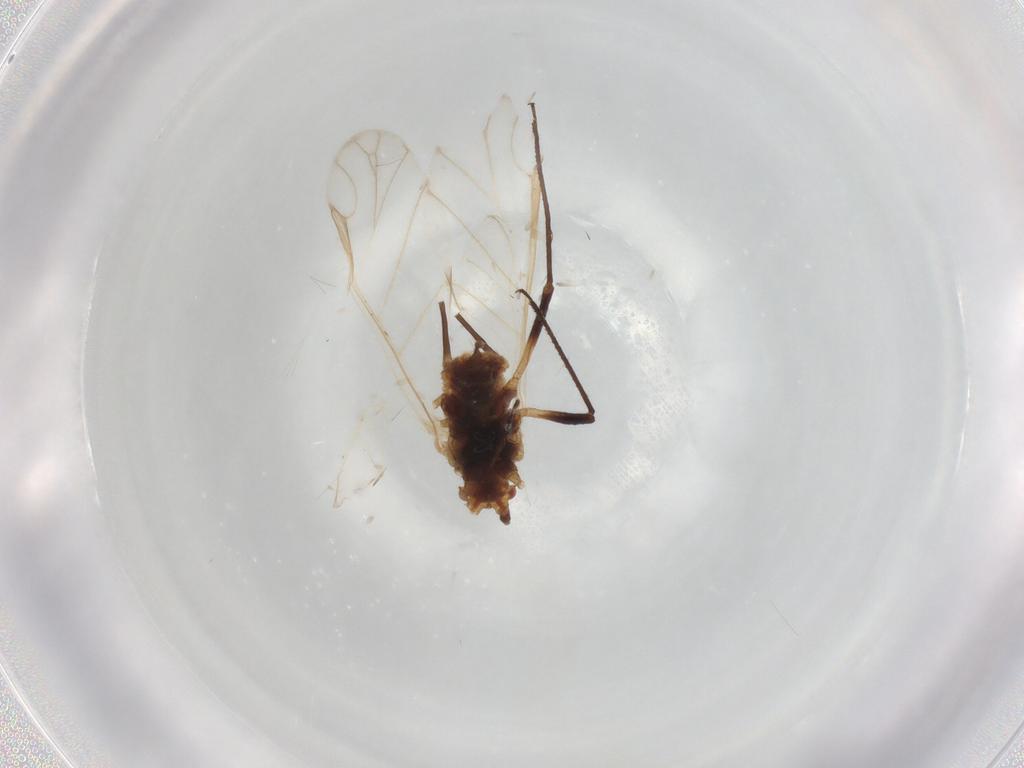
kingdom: Animalia
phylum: Arthropoda
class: Insecta
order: Hemiptera
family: Aphididae
